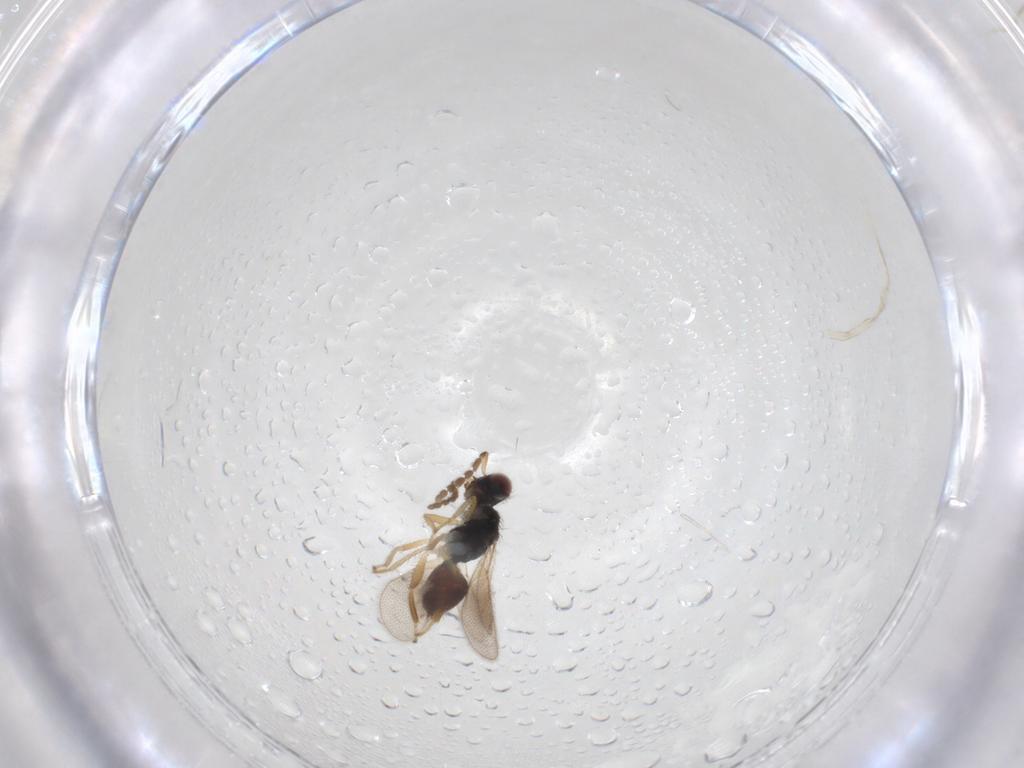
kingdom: Animalia
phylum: Arthropoda
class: Insecta
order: Hymenoptera
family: Eulophidae
